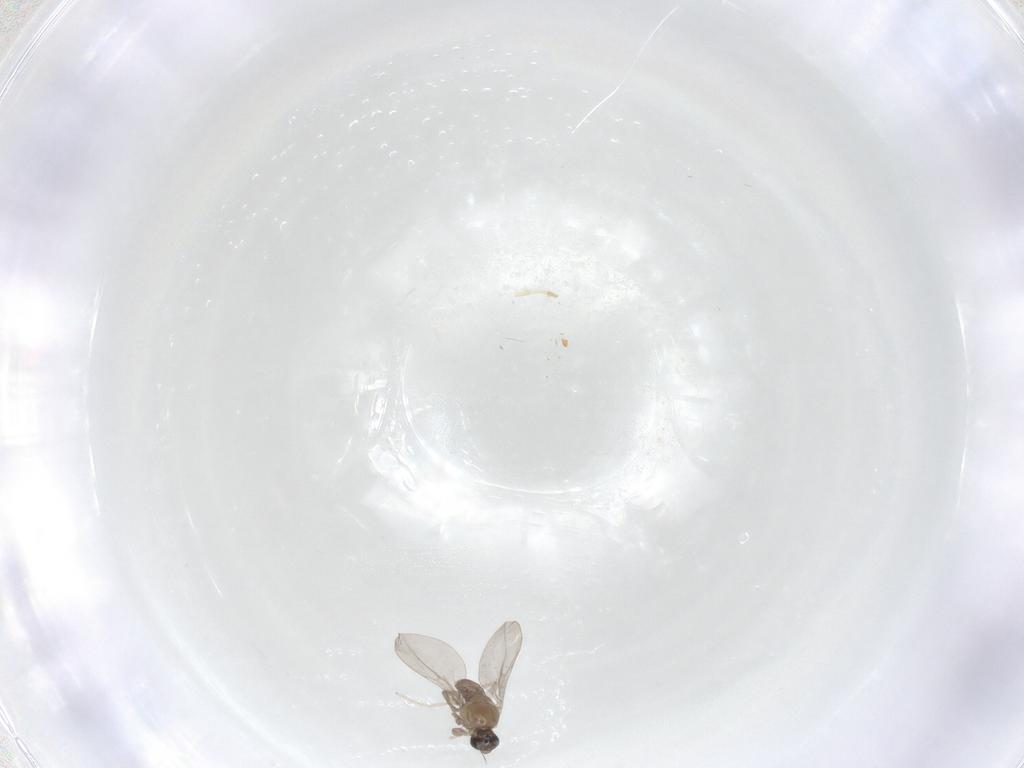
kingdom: Animalia
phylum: Arthropoda
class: Insecta
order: Diptera
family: Cecidomyiidae
